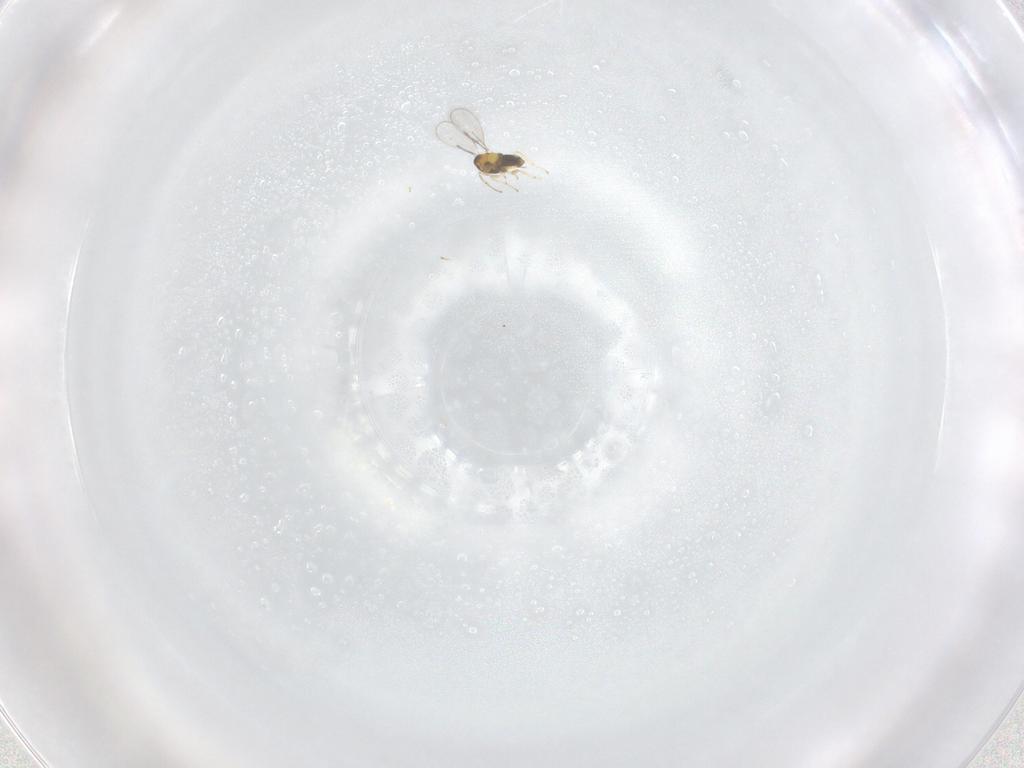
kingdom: Animalia
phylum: Arthropoda
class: Insecta
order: Hymenoptera
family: Aphelinidae
